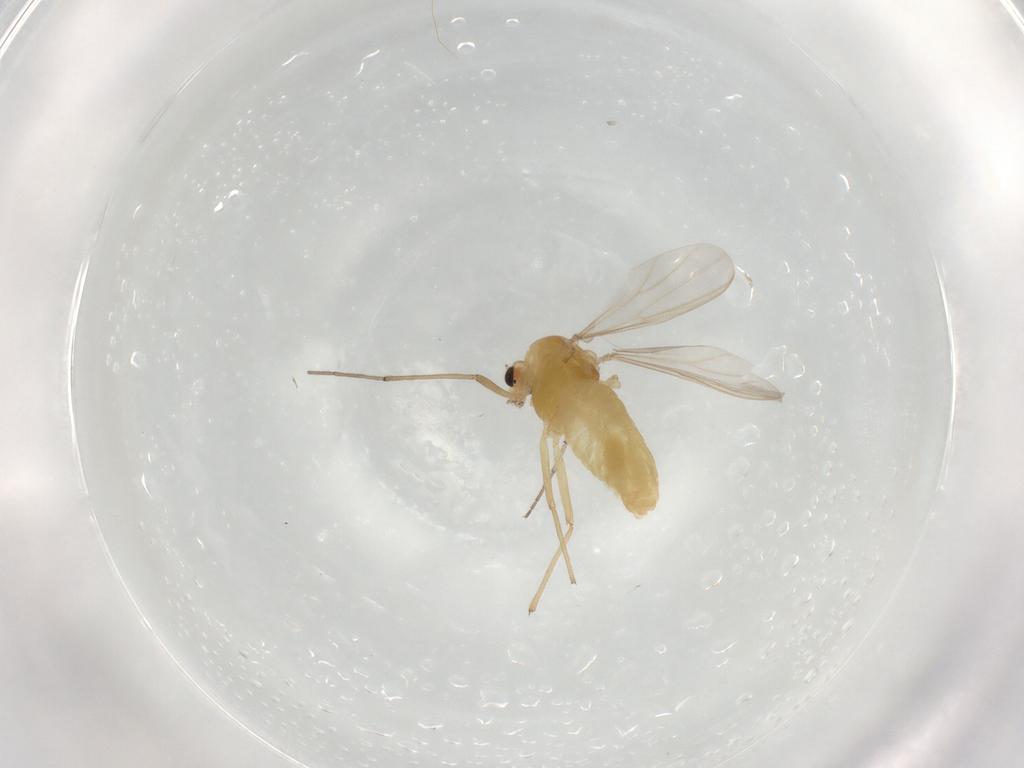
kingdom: Animalia
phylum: Arthropoda
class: Insecta
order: Diptera
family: Chironomidae
